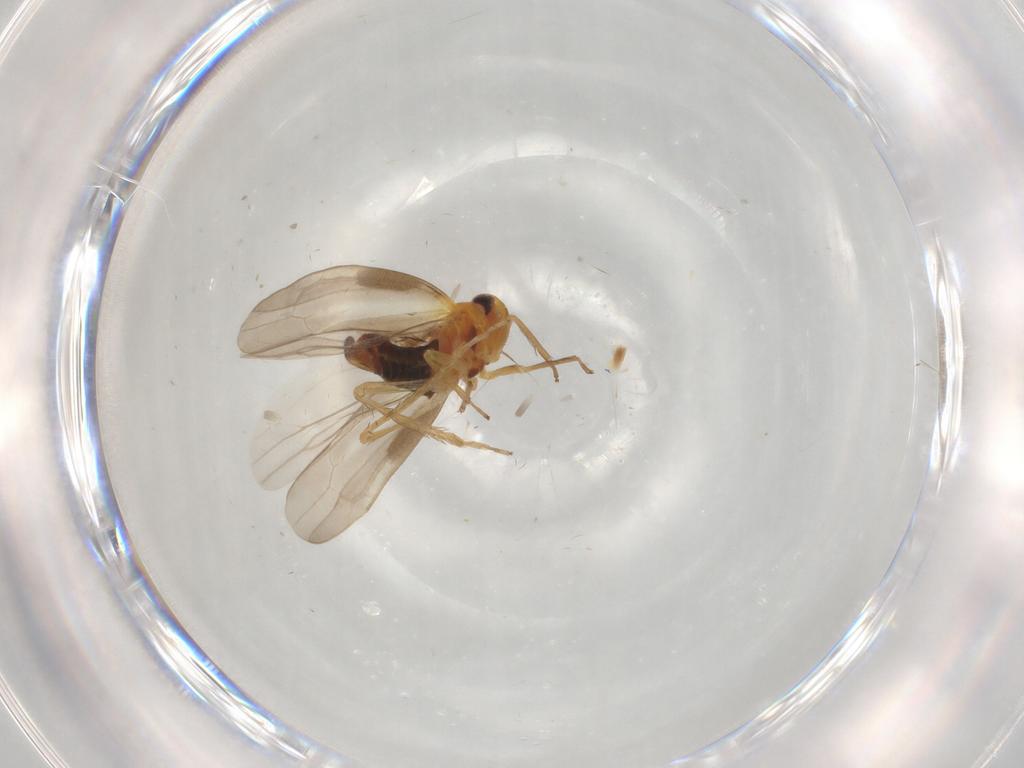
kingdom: Animalia
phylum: Arthropoda
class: Insecta
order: Hemiptera
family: Cicadellidae
